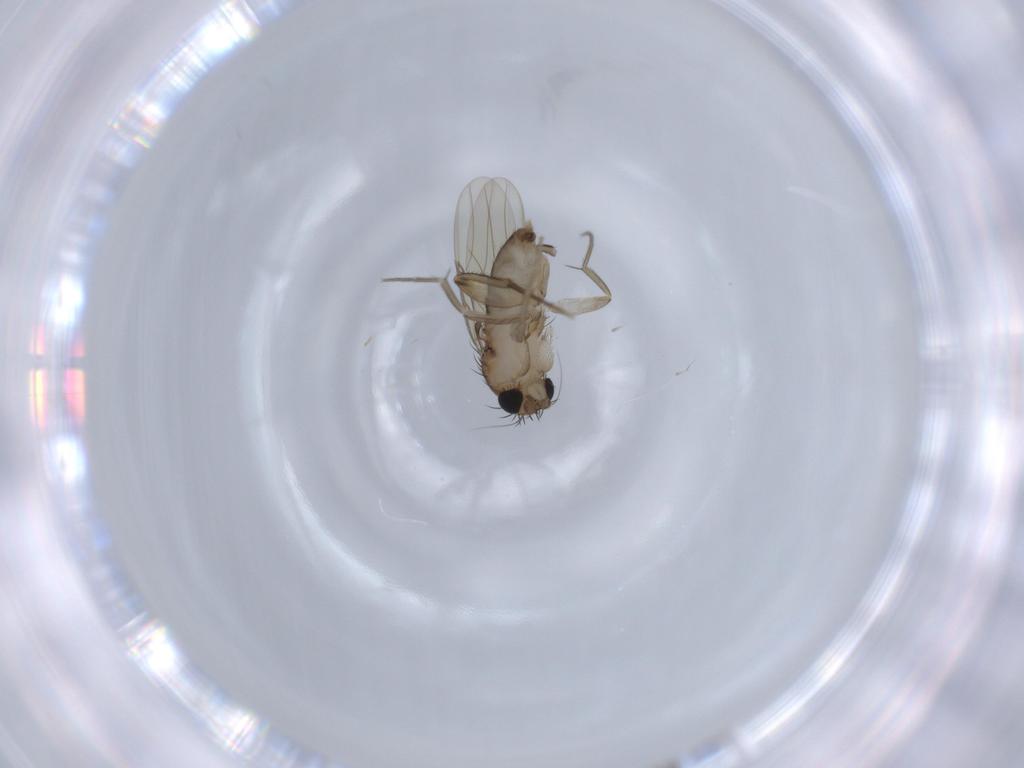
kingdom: Animalia
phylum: Arthropoda
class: Insecta
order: Diptera
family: Phoridae
